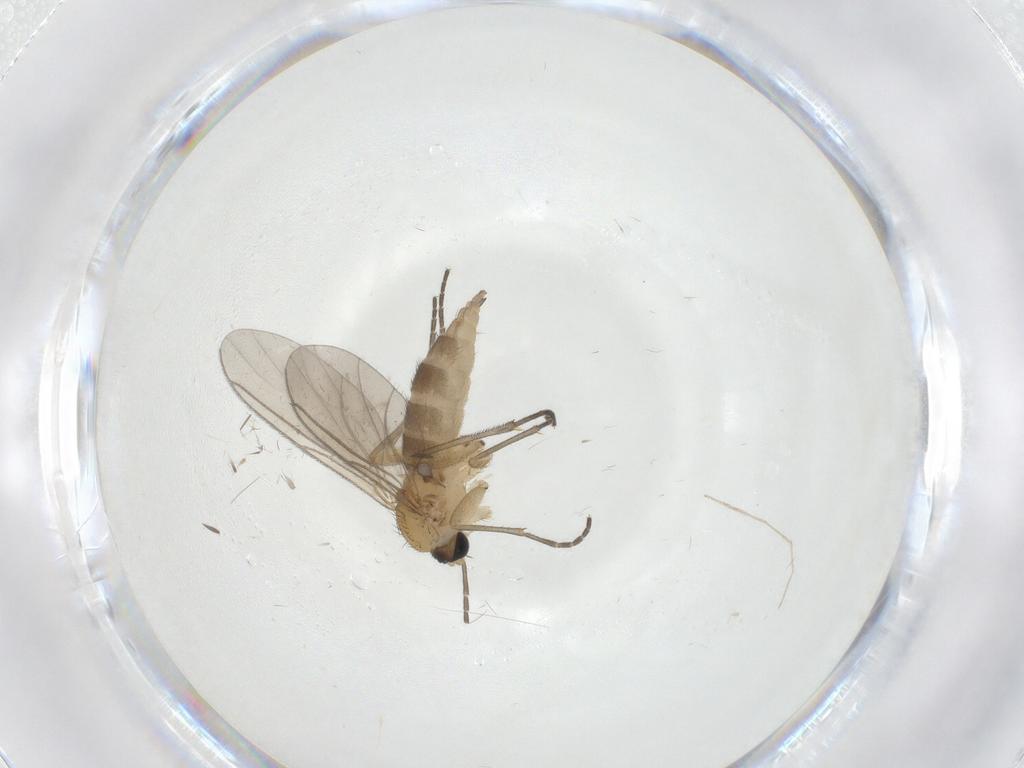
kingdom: Animalia
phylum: Arthropoda
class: Insecta
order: Diptera
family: Chironomidae
